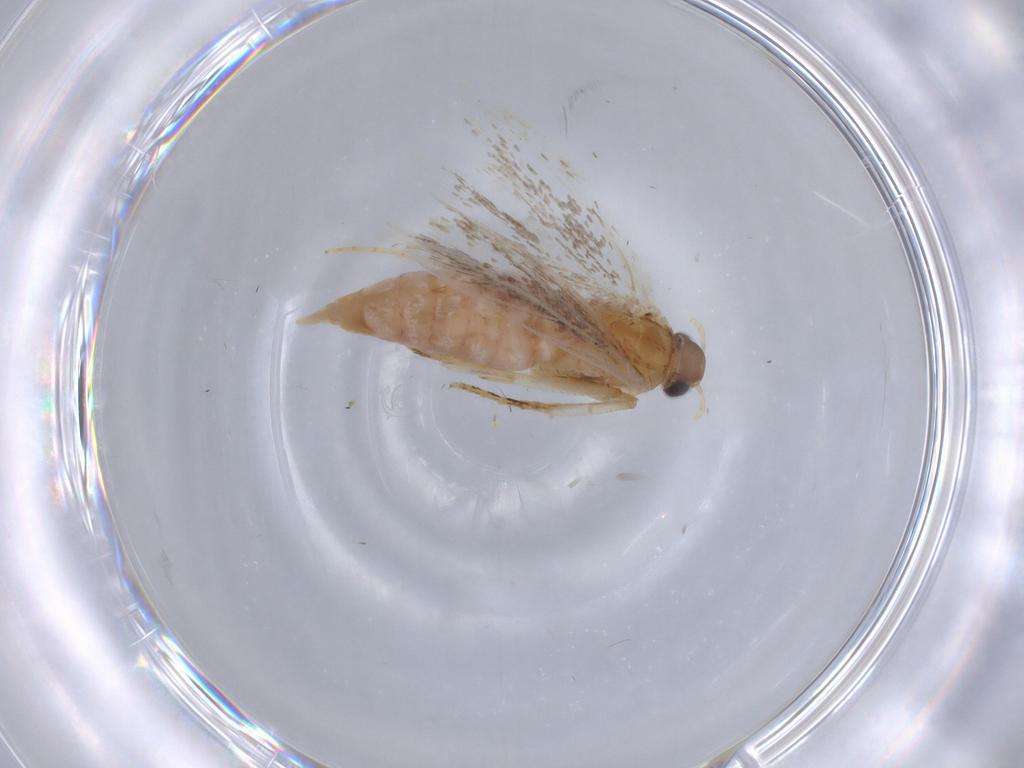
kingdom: Animalia
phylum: Arthropoda
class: Insecta
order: Lepidoptera
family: Gelechiidae
